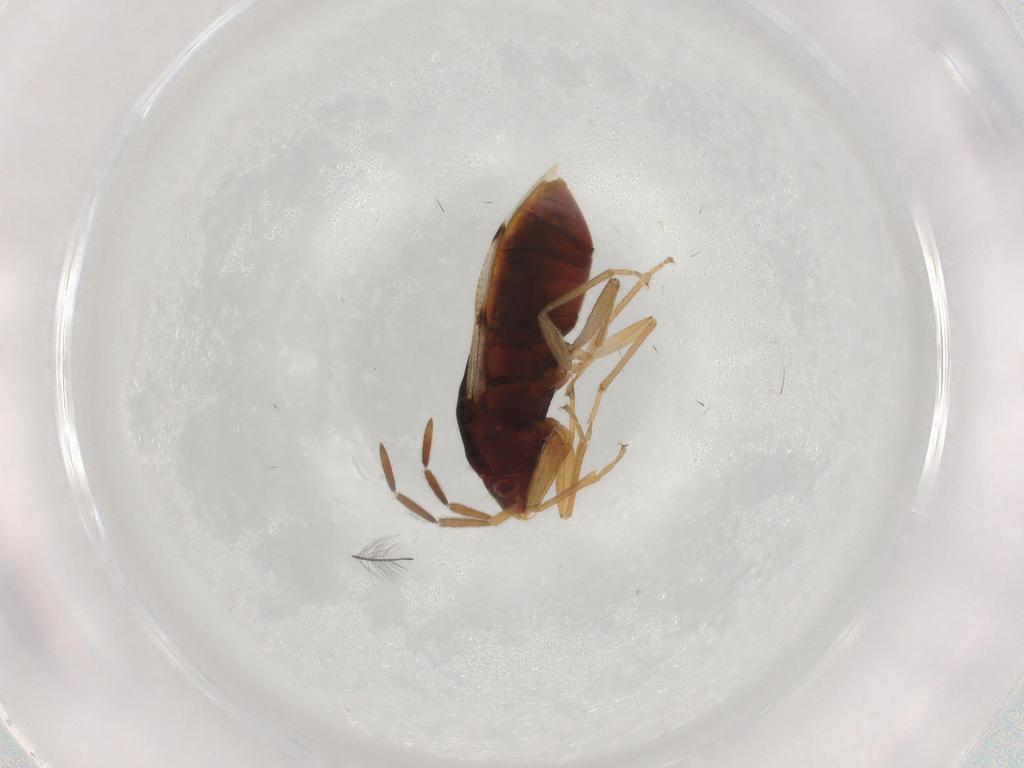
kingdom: Animalia
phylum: Arthropoda
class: Insecta
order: Hemiptera
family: Rhyparochromidae
